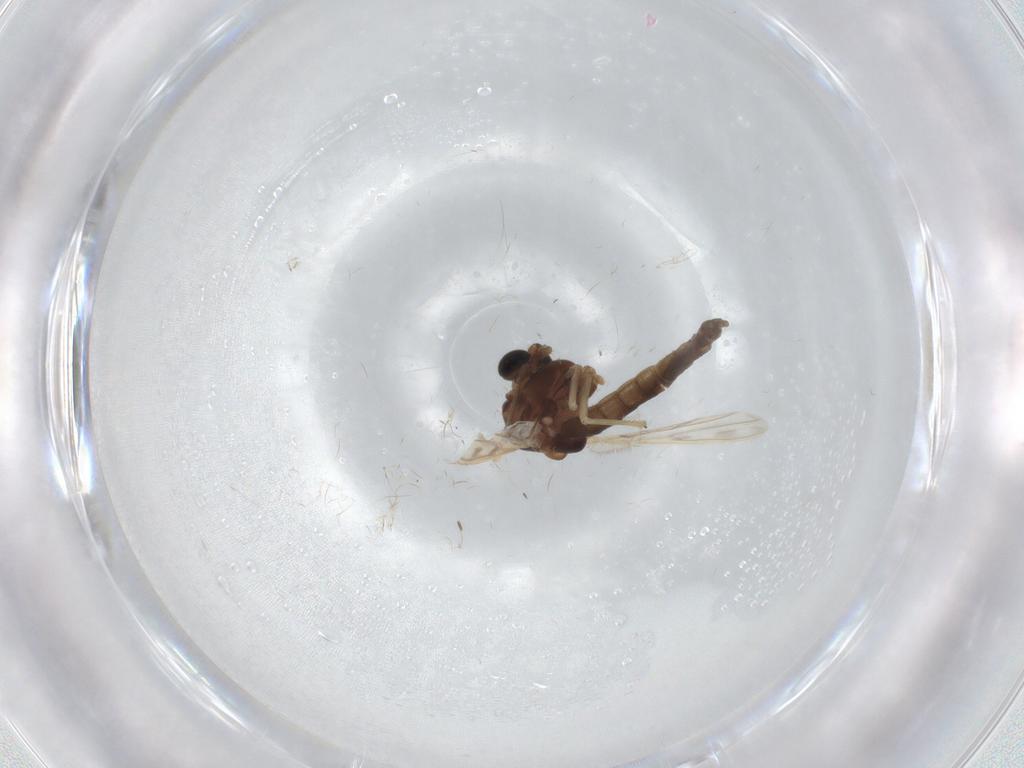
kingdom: Animalia
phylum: Arthropoda
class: Insecta
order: Diptera
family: Chironomidae
